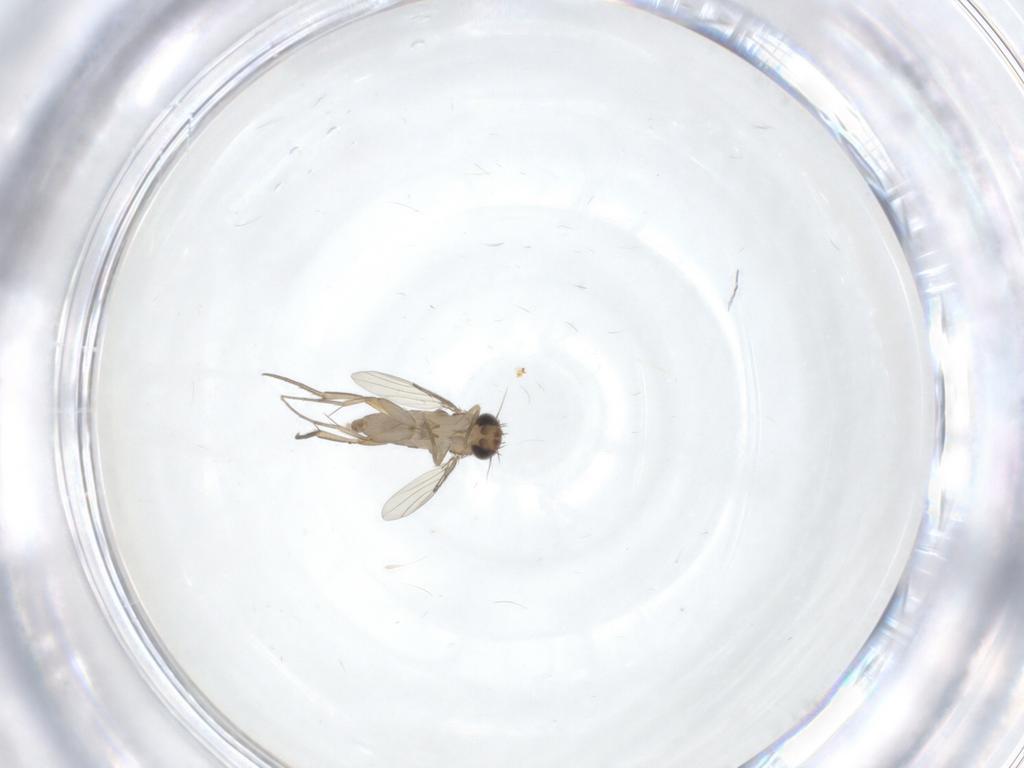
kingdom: Animalia
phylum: Arthropoda
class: Insecta
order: Diptera
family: Phoridae
